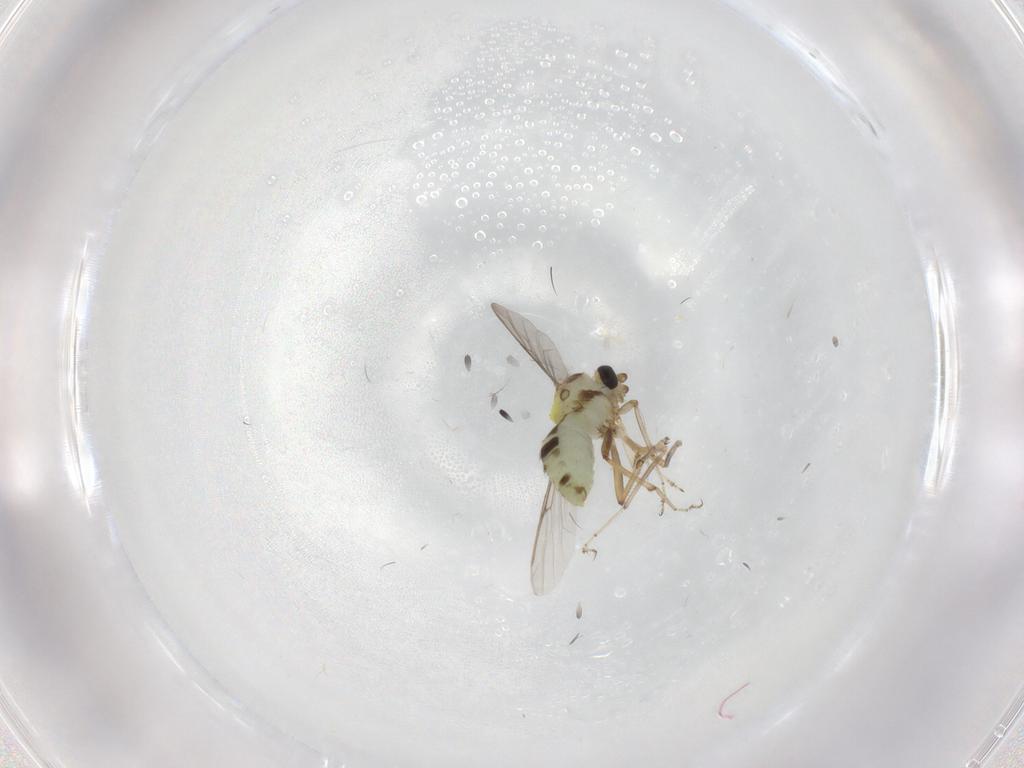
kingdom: Animalia
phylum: Arthropoda
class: Insecta
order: Diptera
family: Ceratopogonidae
